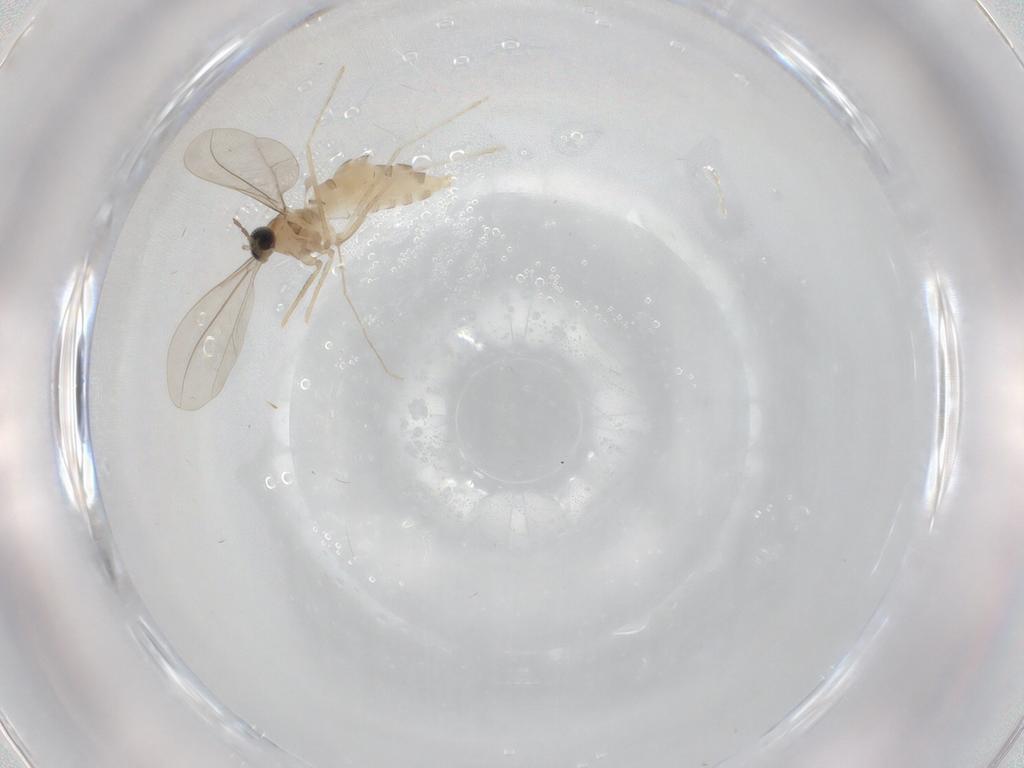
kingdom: Animalia
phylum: Arthropoda
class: Insecta
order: Diptera
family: Cecidomyiidae
